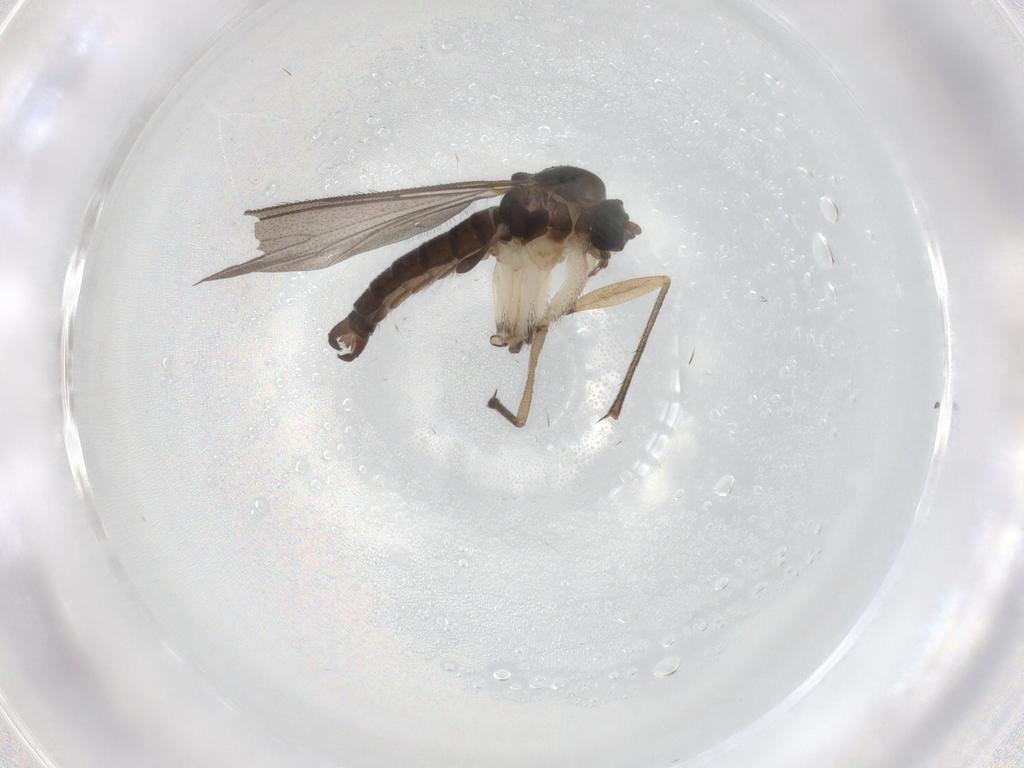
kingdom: Animalia
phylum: Arthropoda
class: Insecta
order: Diptera
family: Sciaridae
